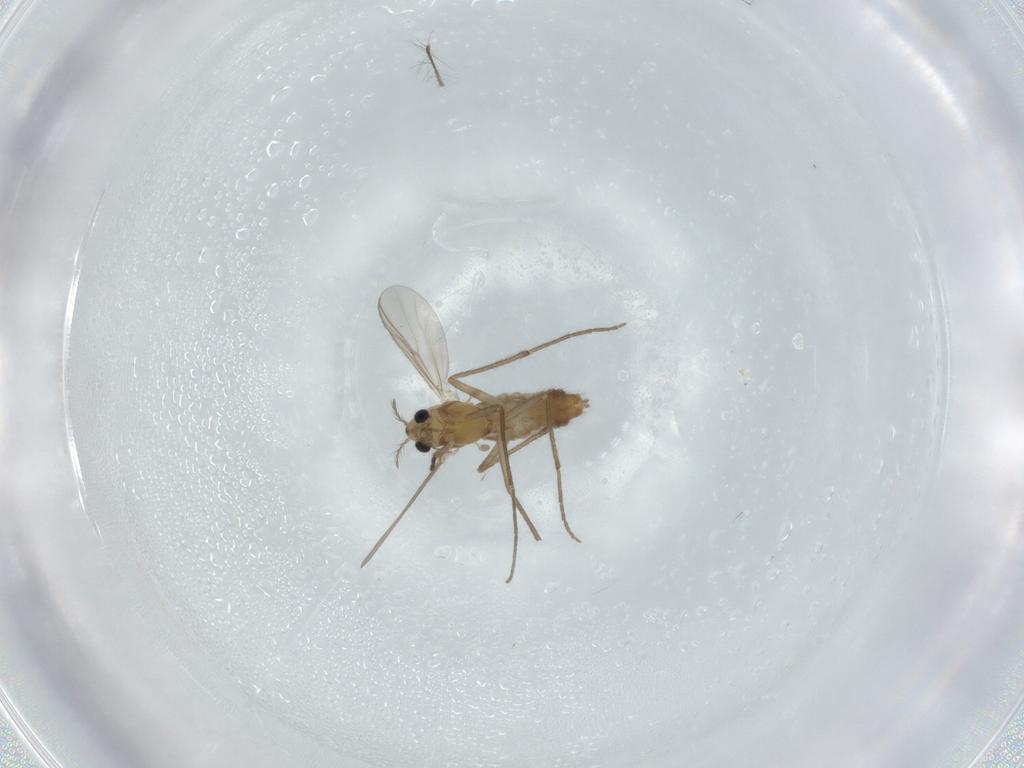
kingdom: Animalia
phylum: Arthropoda
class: Insecta
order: Diptera
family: Chironomidae
